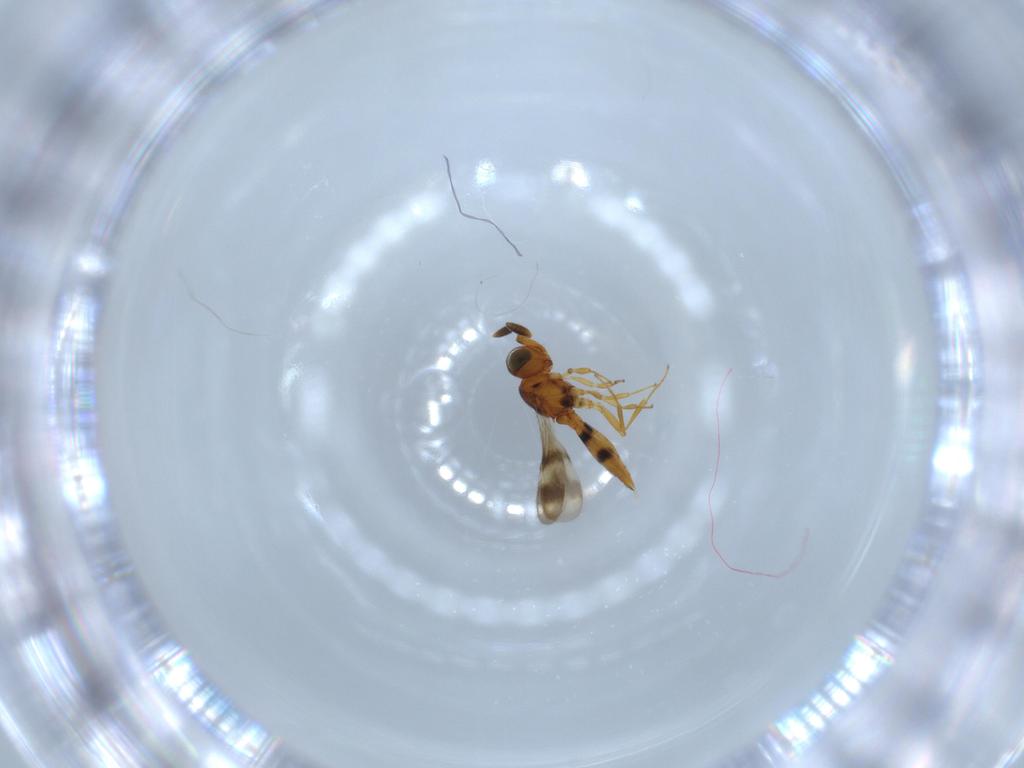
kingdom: Animalia
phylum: Arthropoda
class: Insecta
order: Hymenoptera
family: Scelionidae
